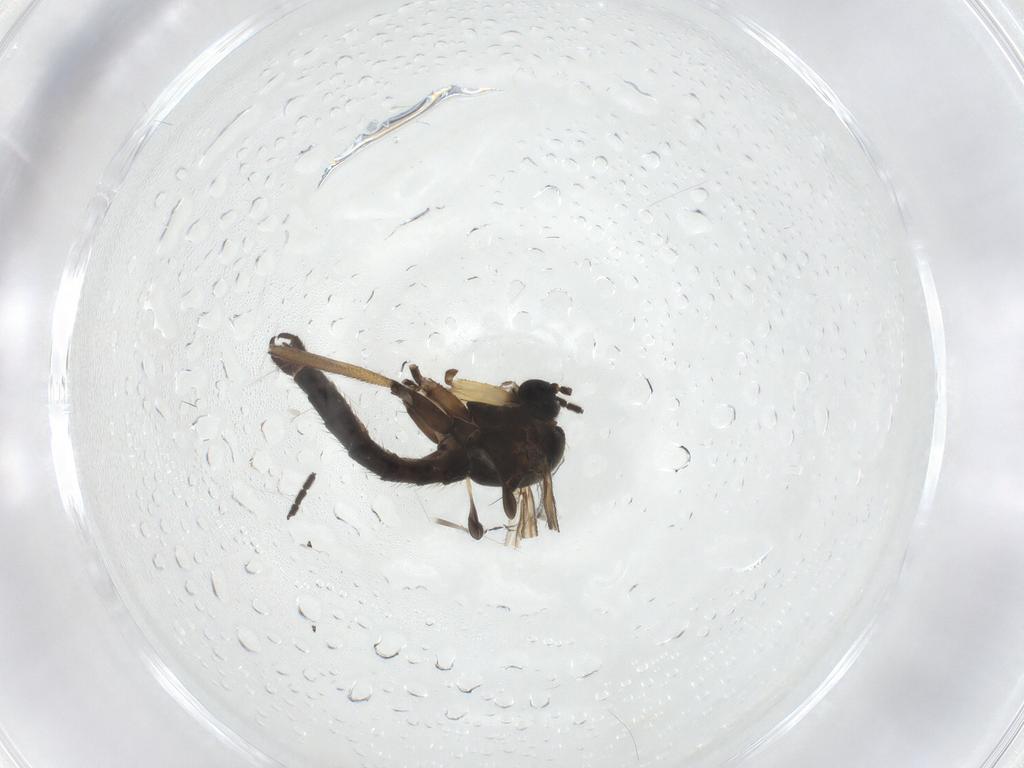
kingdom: Animalia
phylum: Arthropoda
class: Insecta
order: Diptera
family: Sciaridae
